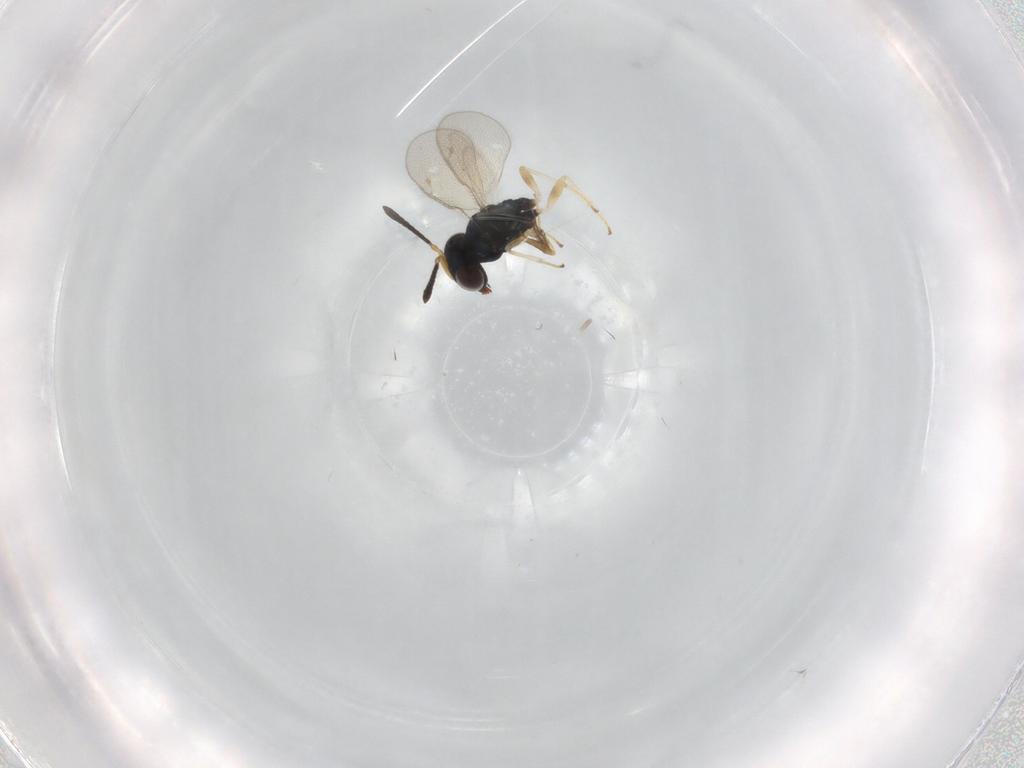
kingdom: Animalia
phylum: Arthropoda
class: Insecta
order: Hymenoptera
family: Pteromalidae
